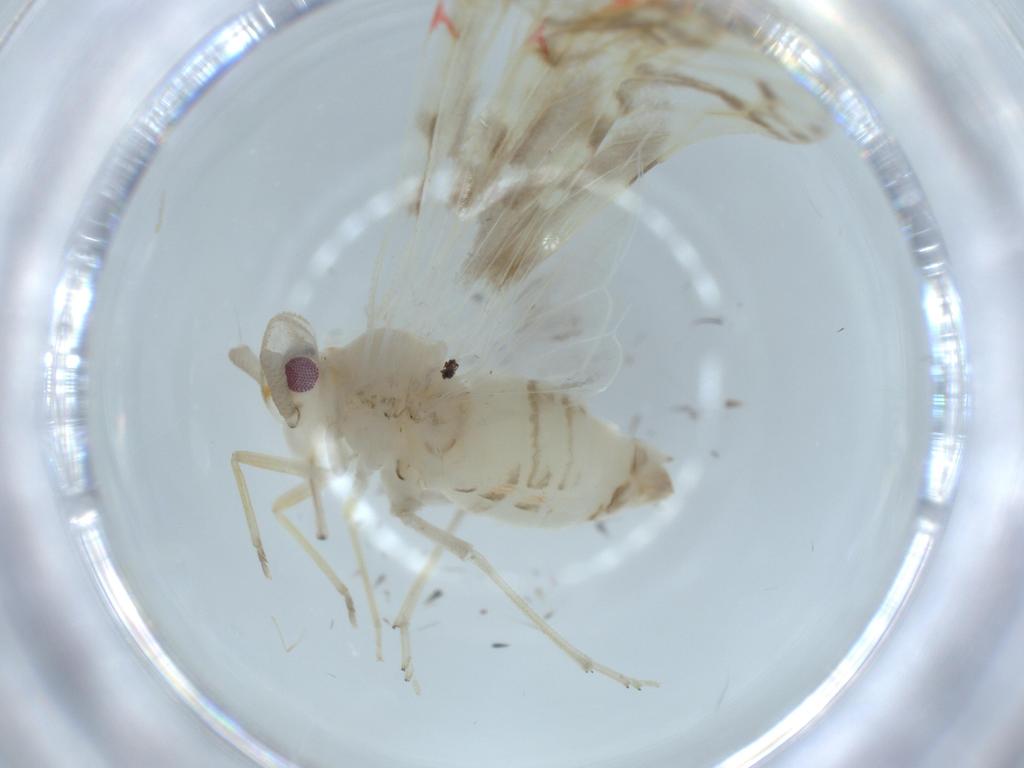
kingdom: Animalia
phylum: Arthropoda
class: Insecta
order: Hemiptera
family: Derbidae
